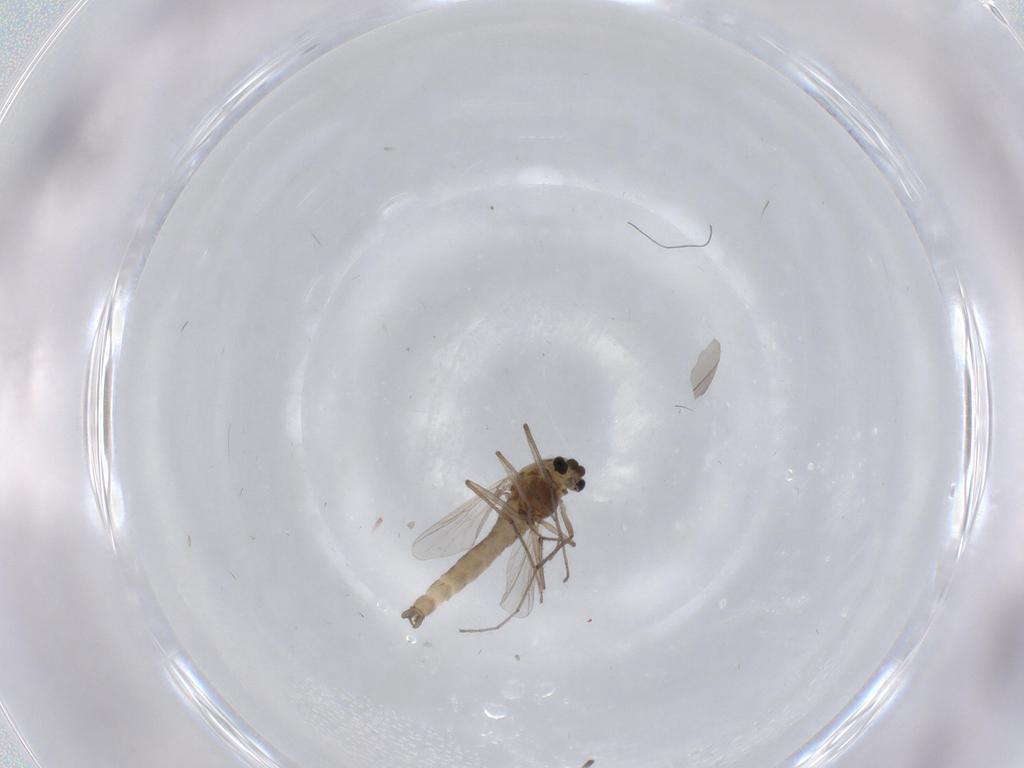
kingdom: Animalia
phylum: Arthropoda
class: Insecta
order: Diptera
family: Chironomidae
